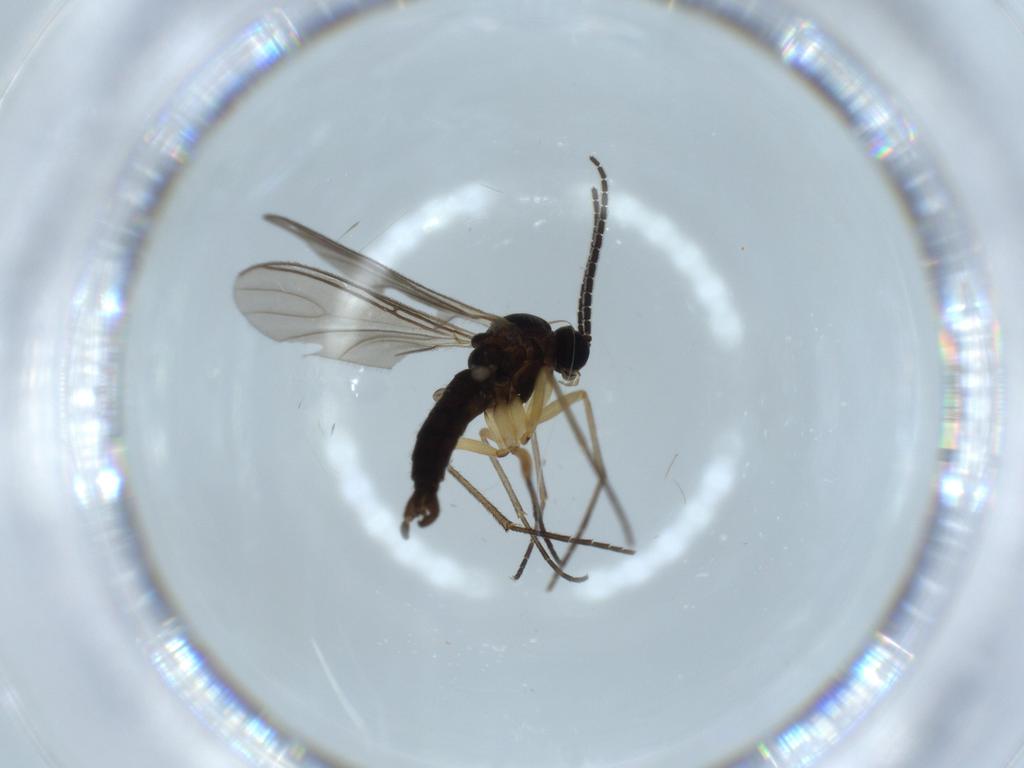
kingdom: Animalia
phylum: Arthropoda
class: Insecta
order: Diptera
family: Sciaridae
